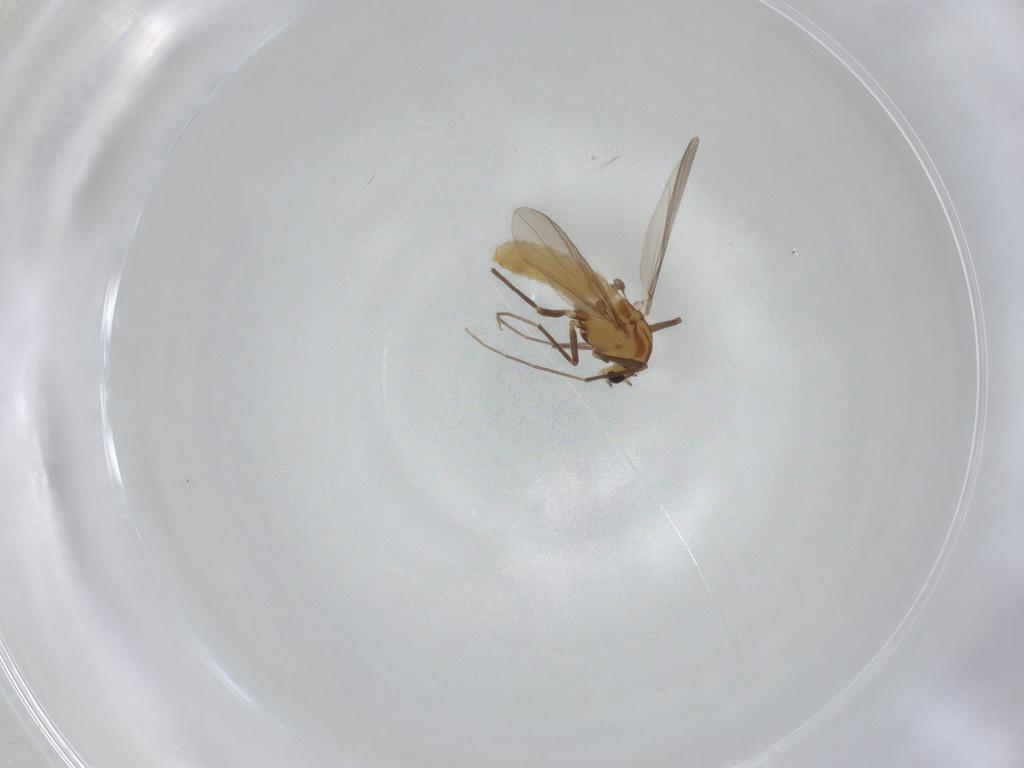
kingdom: Animalia
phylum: Arthropoda
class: Insecta
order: Diptera
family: Chironomidae
